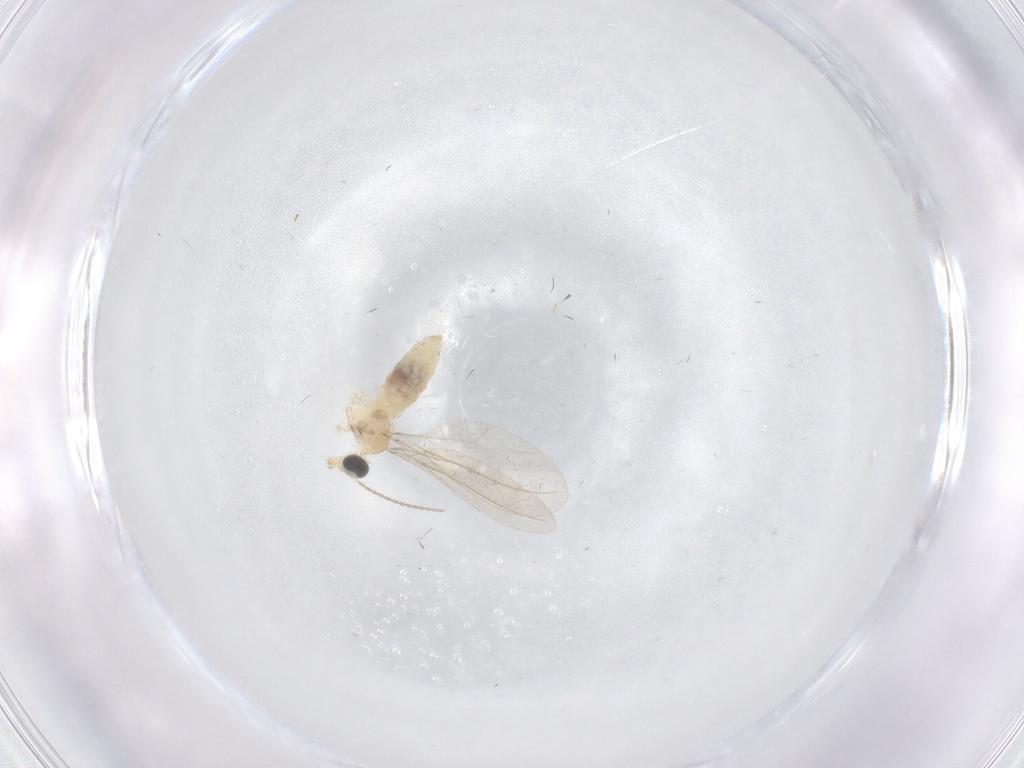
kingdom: Animalia
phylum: Arthropoda
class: Insecta
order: Diptera
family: Cecidomyiidae
